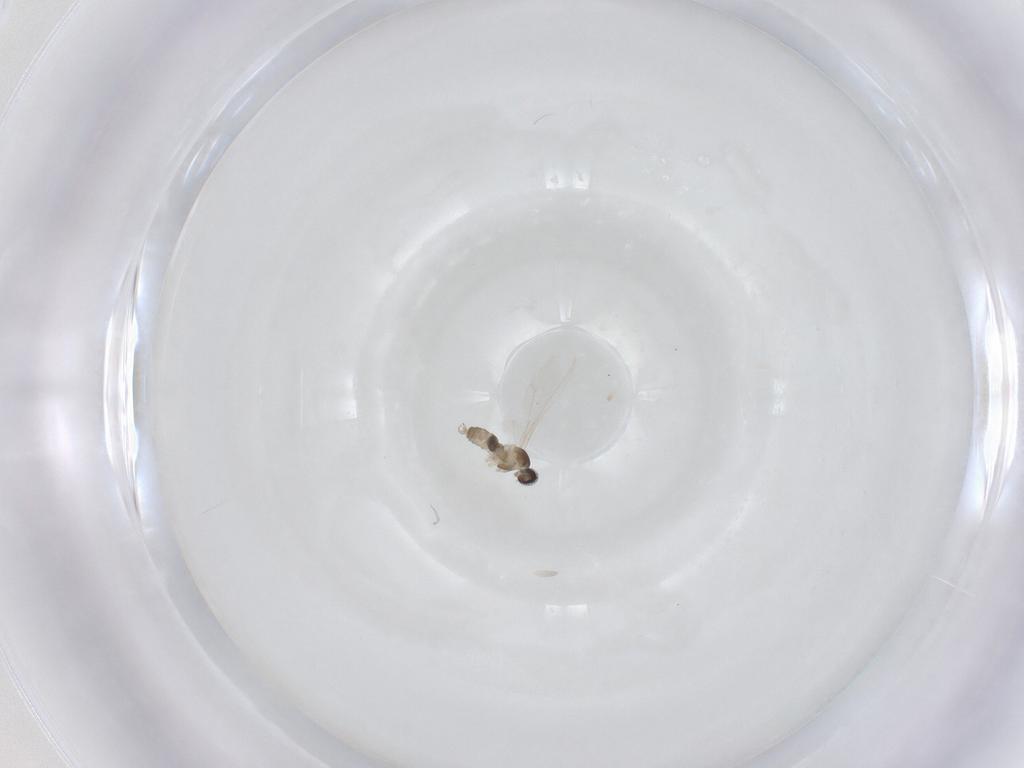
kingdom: Animalia
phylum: Arthropoda
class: Insecta
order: Diptera
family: Cecidomyiidae
